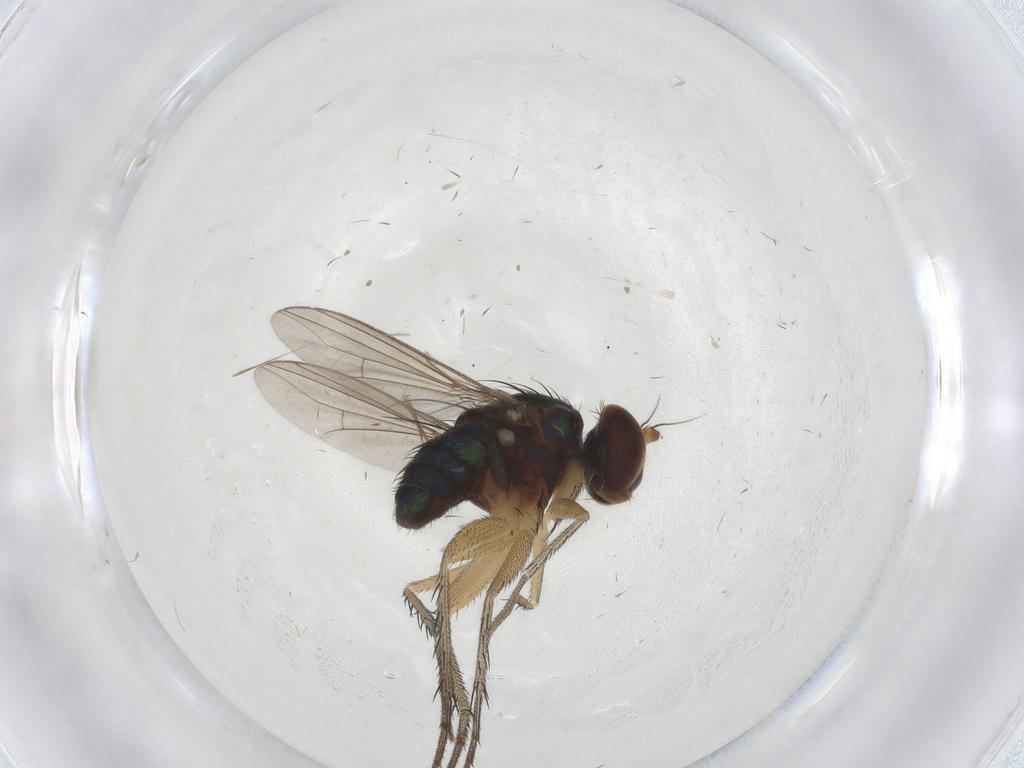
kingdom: Animalia
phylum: Arthropoda
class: Insecta
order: Diptera
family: Dolichopodidae
